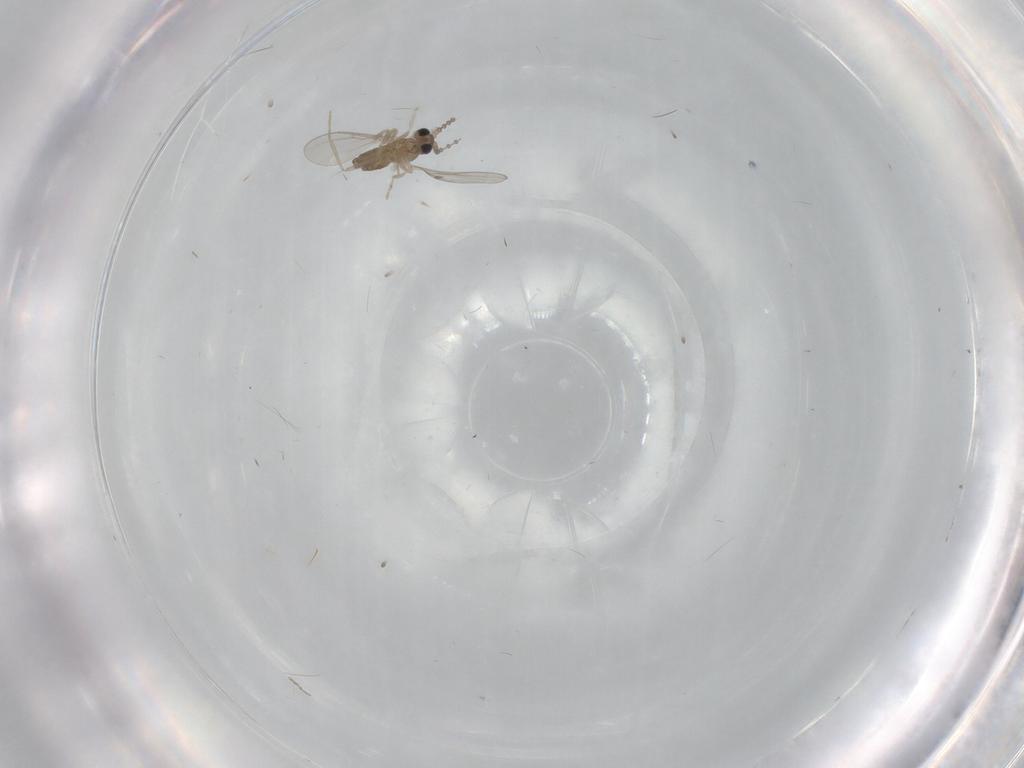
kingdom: Animalia
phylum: Arthropoda
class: Insecta
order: Diptera
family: Cecidomyiidae
